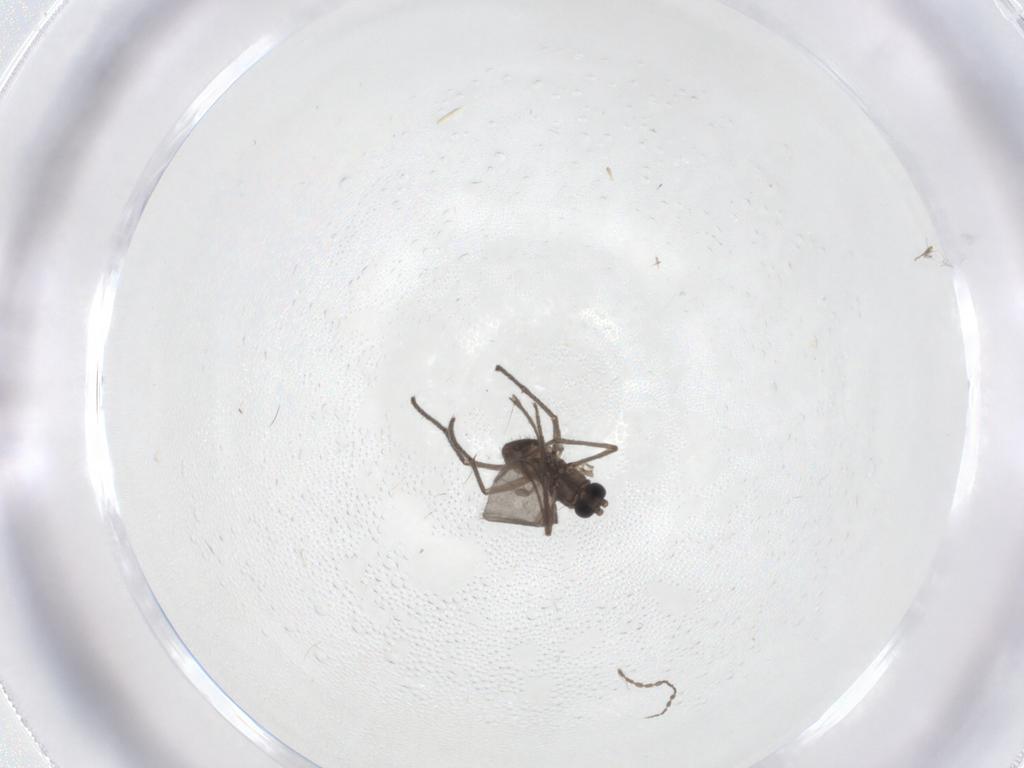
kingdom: Animalia
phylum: Arthropoda
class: Insecta
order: Diptera
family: Sciaridae
